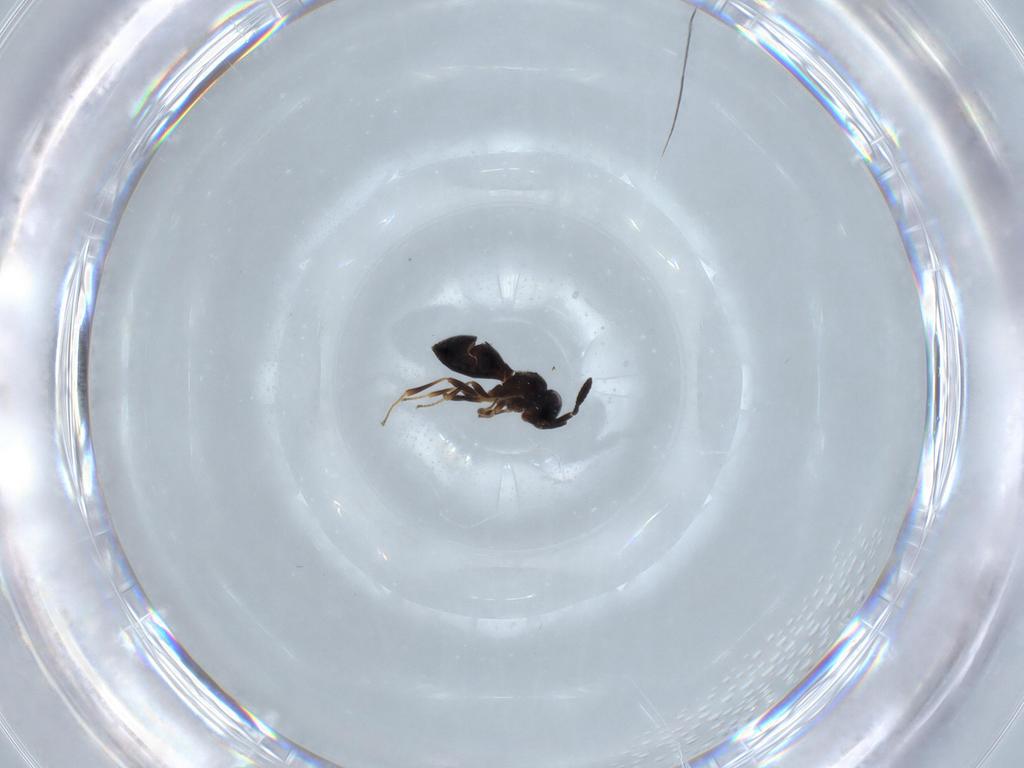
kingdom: Animalia
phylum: Arthropoda
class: Insecta
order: Hymenoptera
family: Scelionidae
